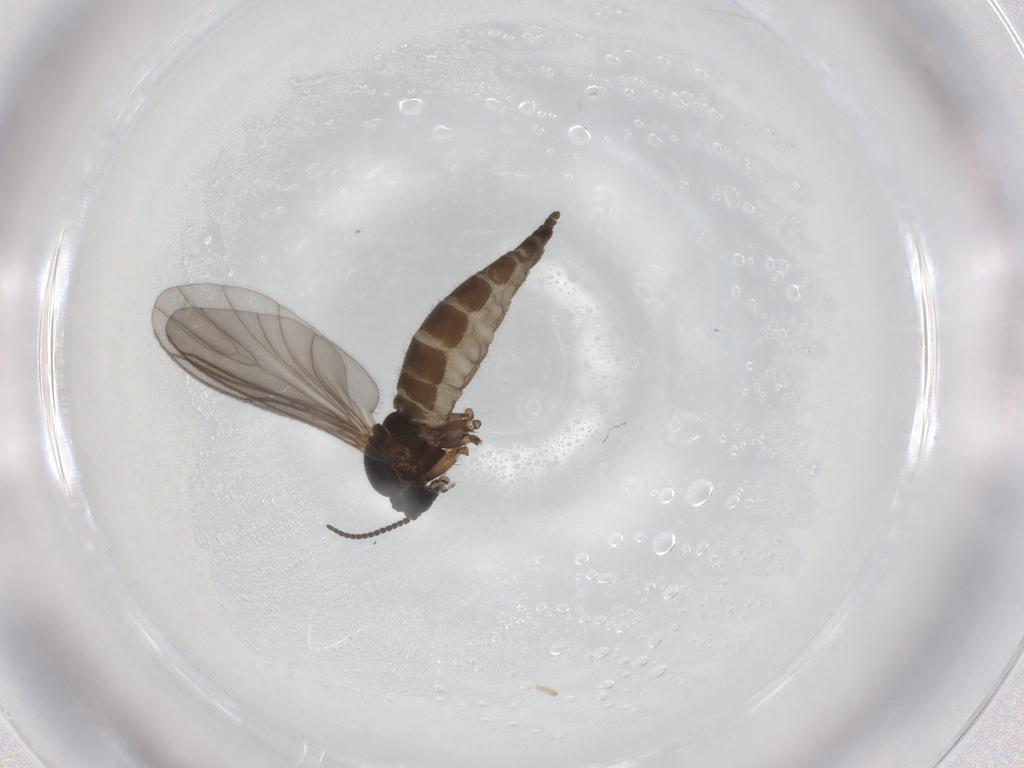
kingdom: Animalia
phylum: Arthropoda
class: Insecta
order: Diptera
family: Sciaridae
